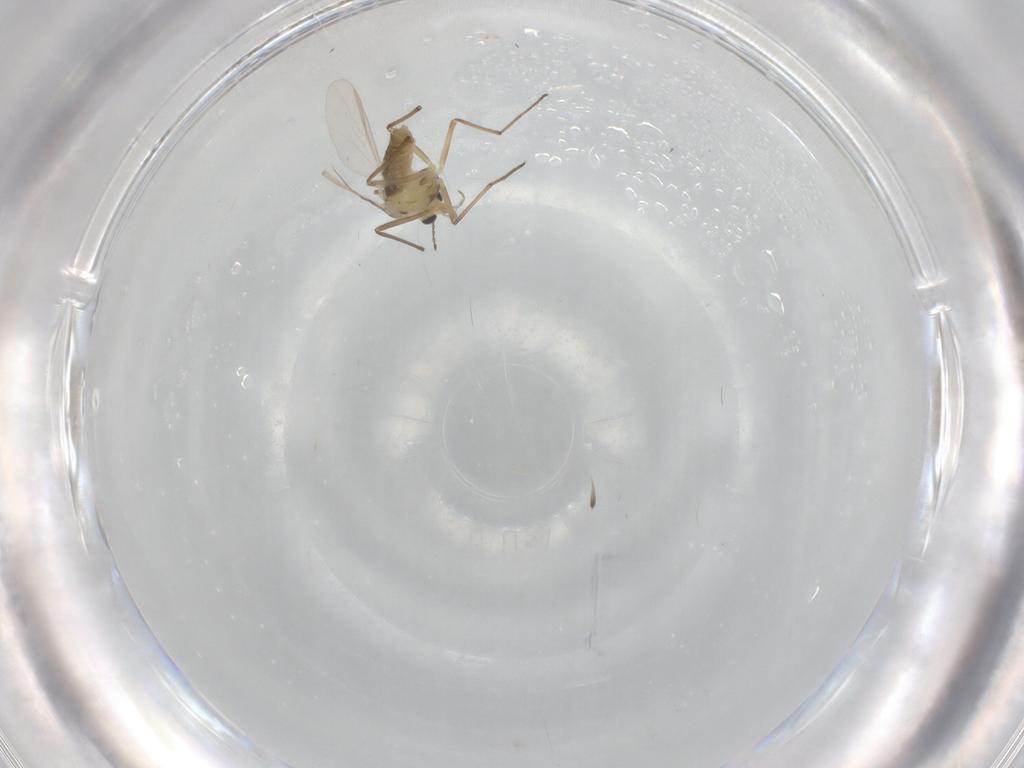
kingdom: Animalia
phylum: Arthropoda
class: Insecta
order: Diptera
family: Chironomidae
